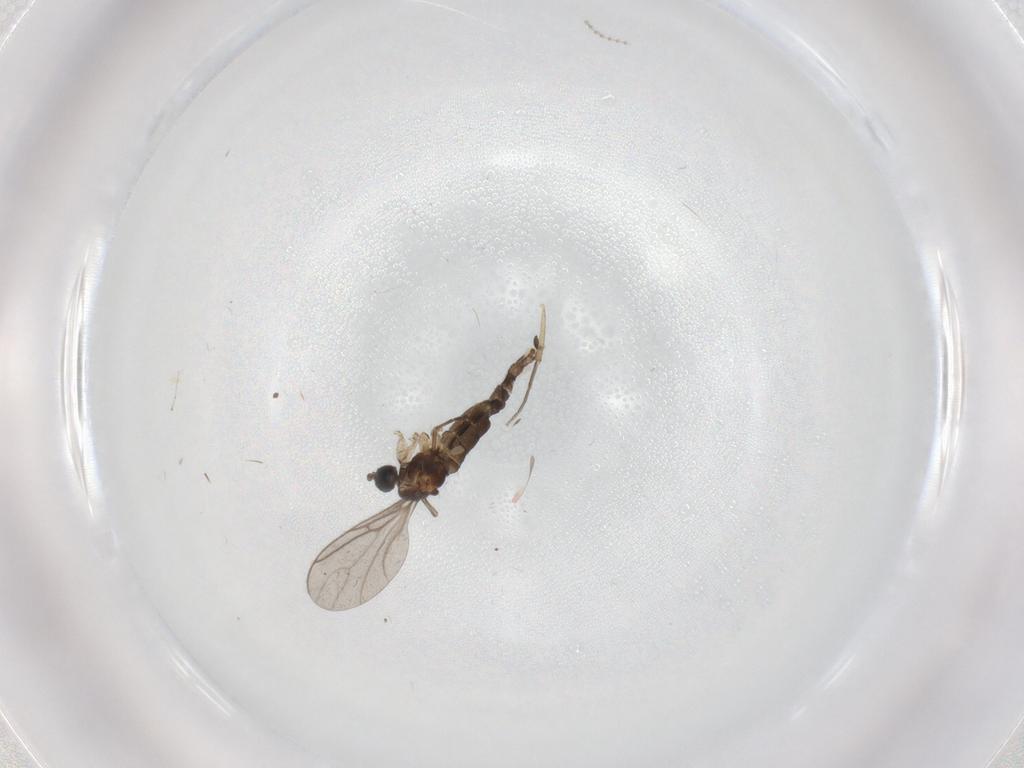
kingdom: Animalia
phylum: Arthropoda
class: Insecta
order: Diptera
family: Cecidomyiidae
